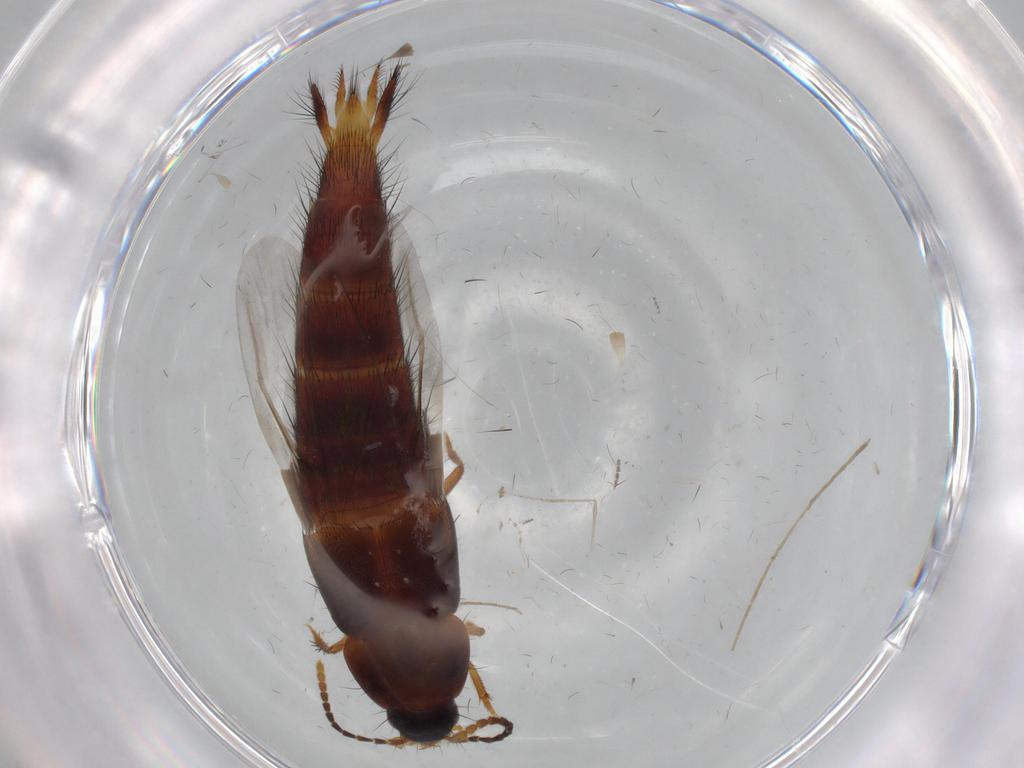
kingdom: Animalia
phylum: Arthropoda
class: Insecta
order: Coleoptera
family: Staphylinidae
